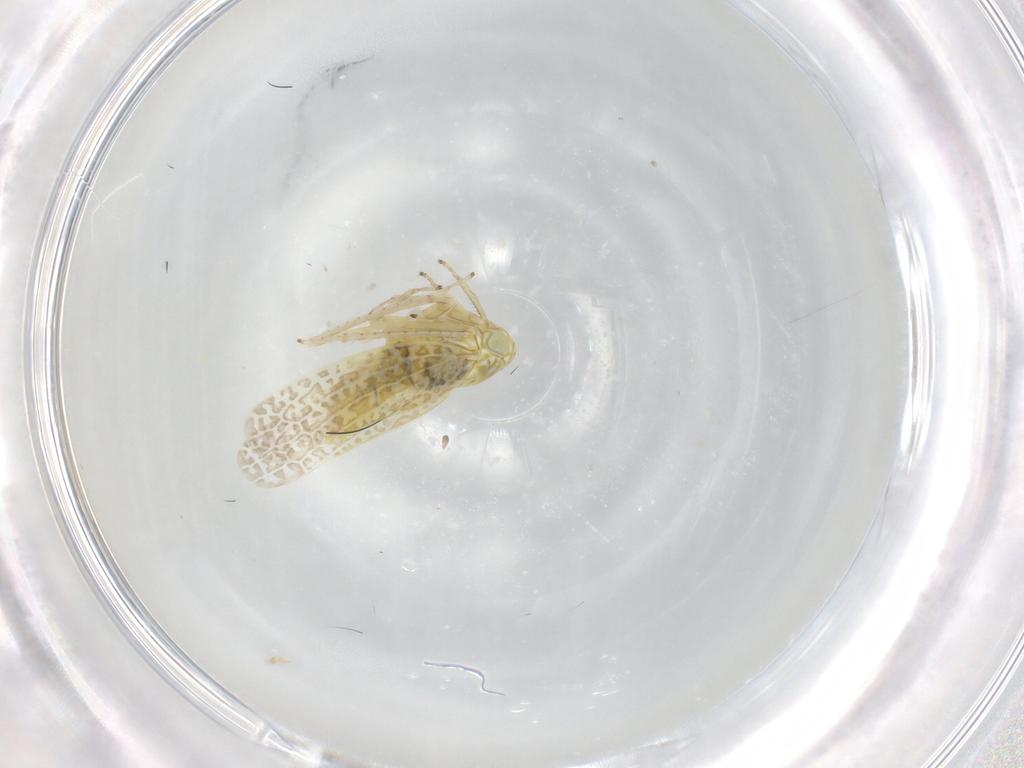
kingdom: Animalia
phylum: Arthropoda
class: Insecta
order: Hemiptera
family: Cicadellidae
